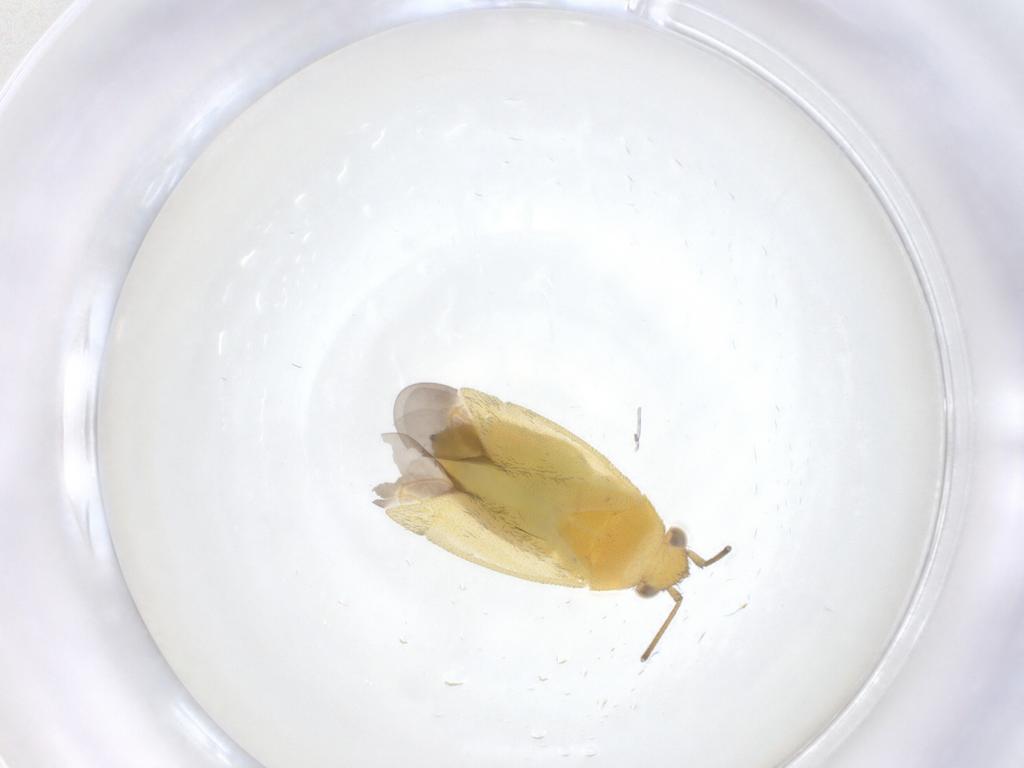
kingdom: Animalia
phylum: Arthropoda
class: Insecta
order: Hemiptera
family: Miridae
